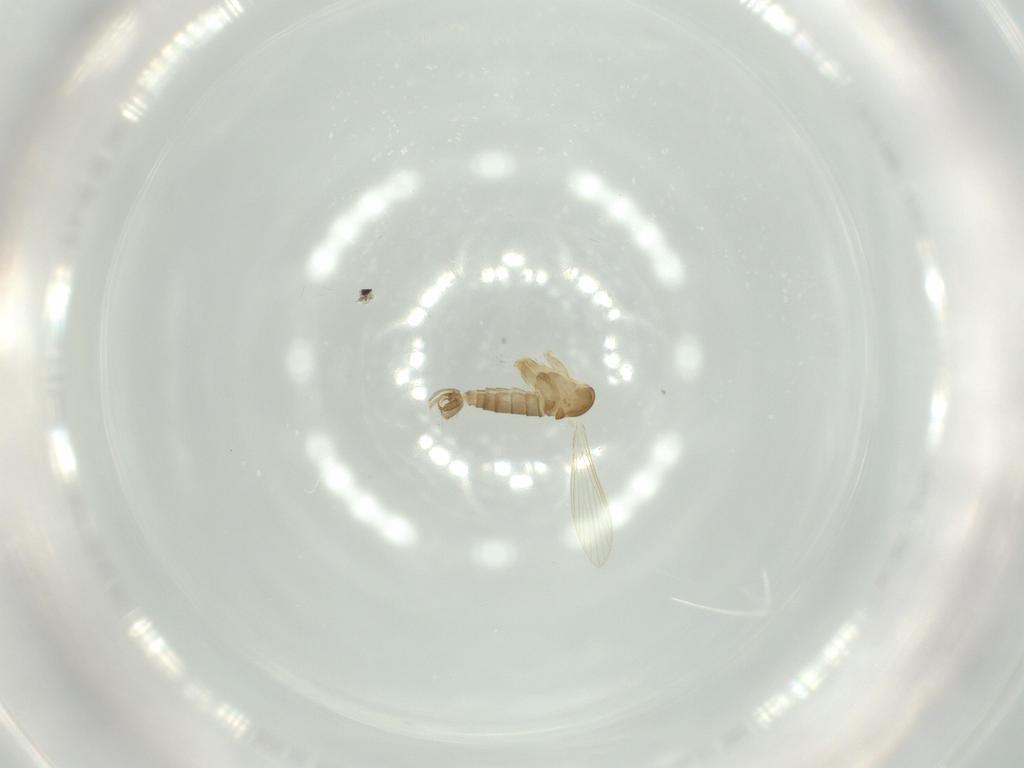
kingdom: Animalia
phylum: Arthropoda
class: Insecta
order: Diptera
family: Psychodidae
